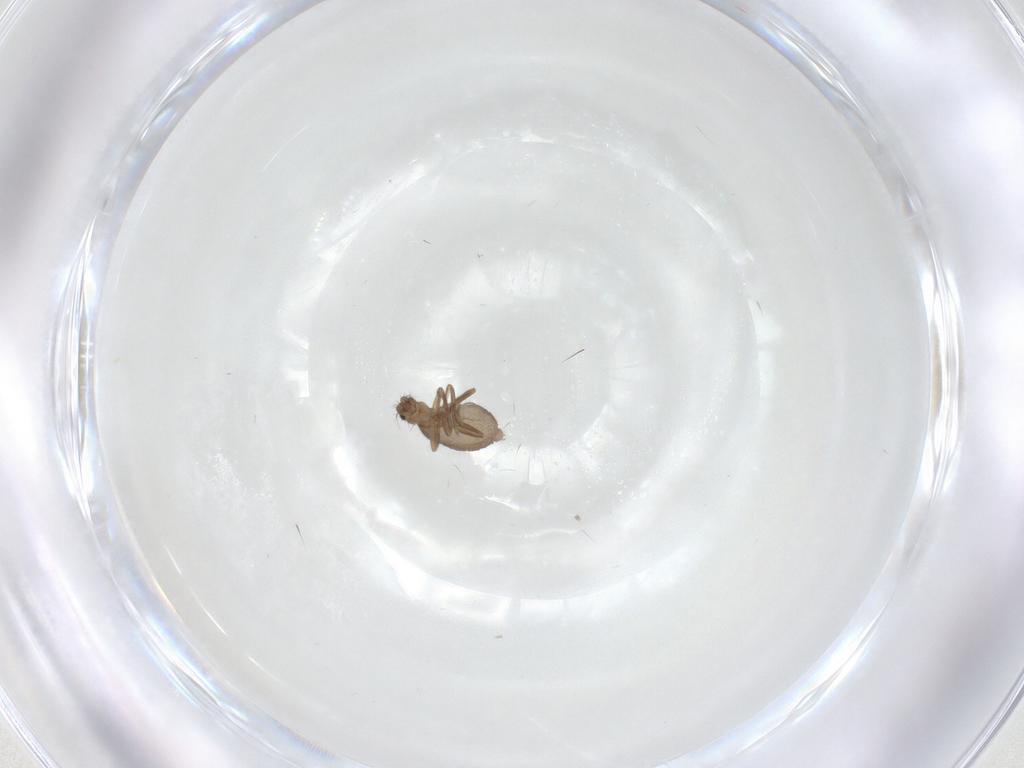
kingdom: Animalia
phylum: Arthropoda
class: Insecta
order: Diptera
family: Phoridae
